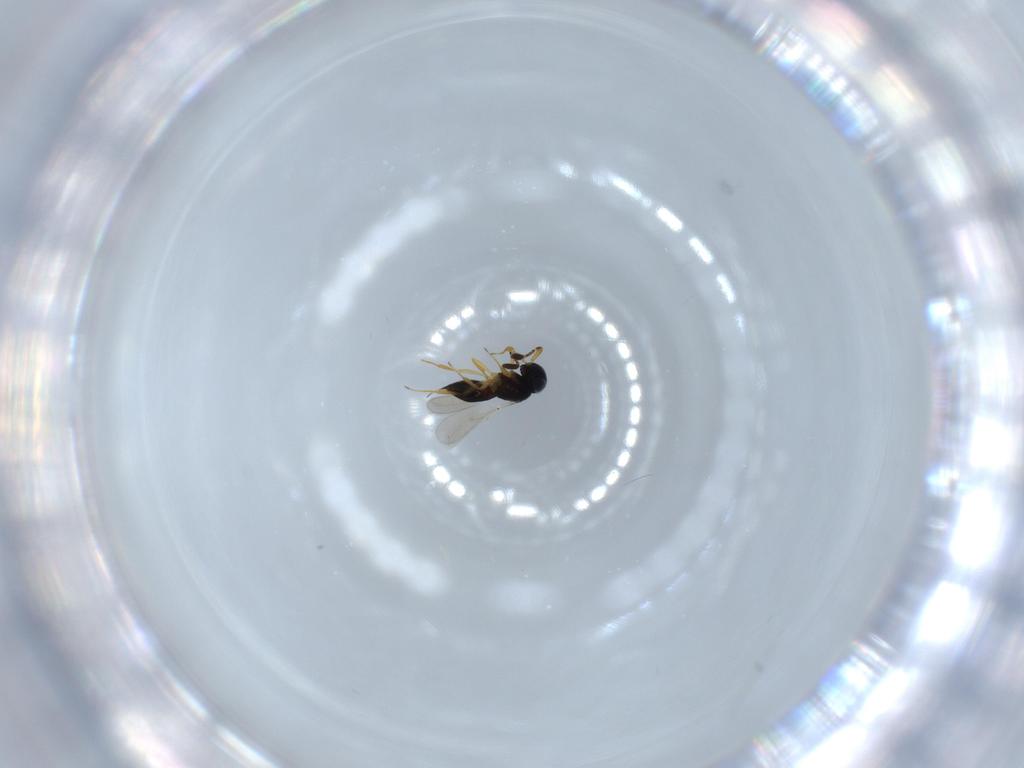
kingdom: Animalia
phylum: Arthropoda
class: Insecta
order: Hymenoptera
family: Scelionidae
